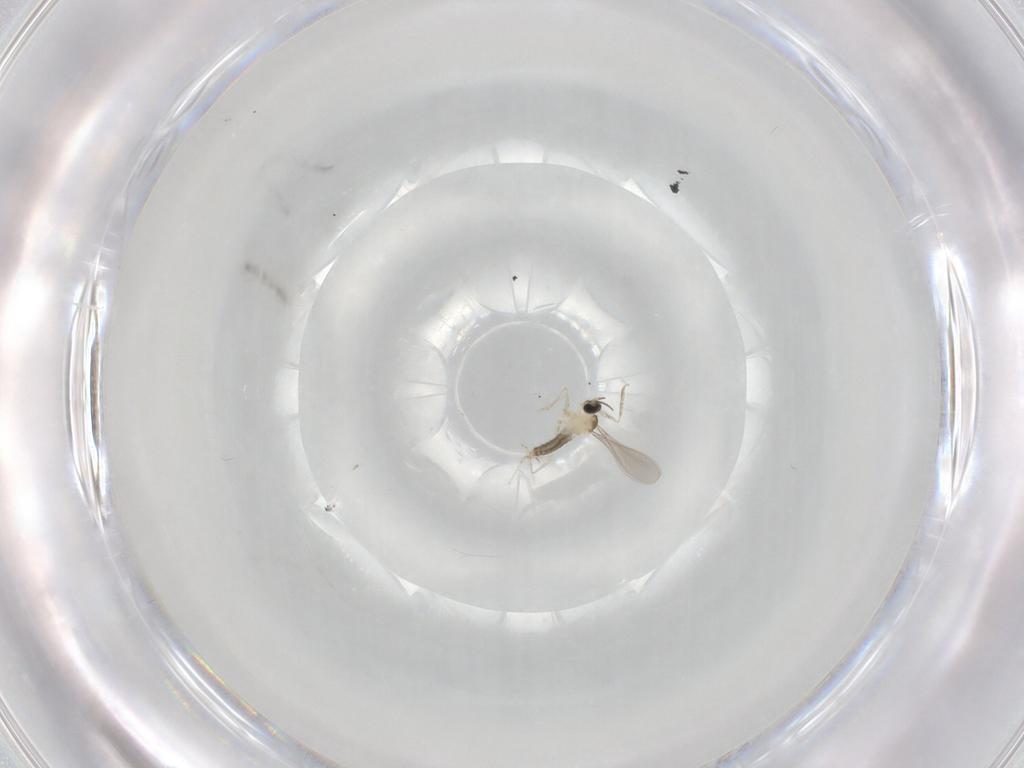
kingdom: Animalia
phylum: Arthropoda
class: Insecta
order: Diptera
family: Cecidomyiidae
